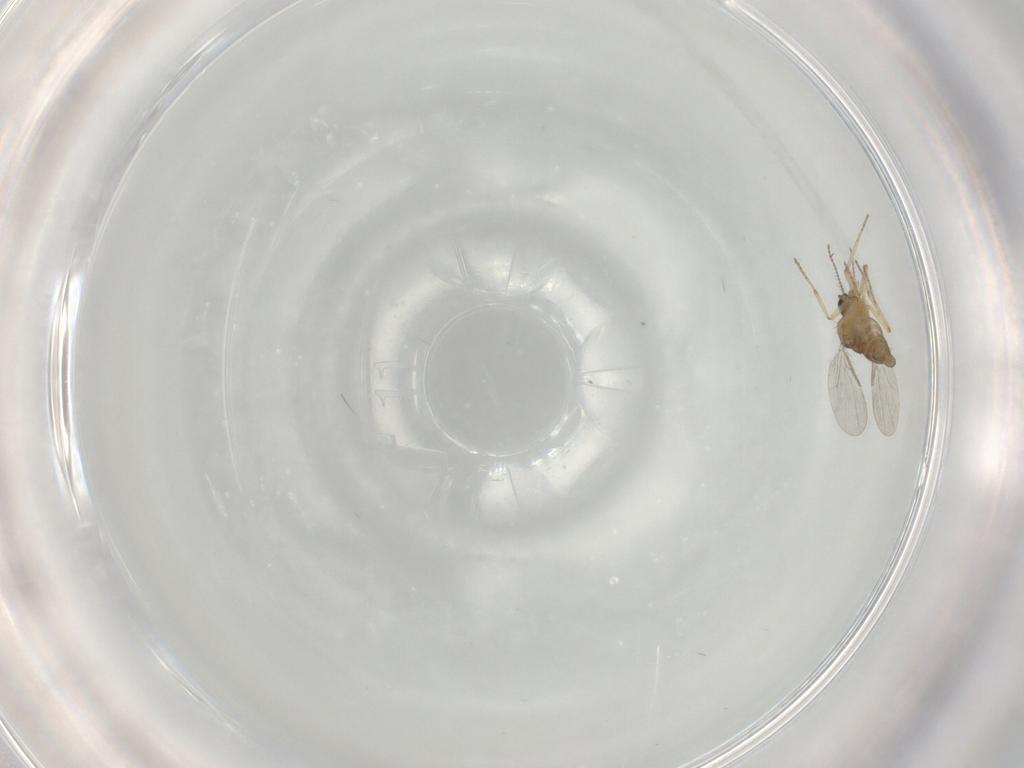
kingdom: Animalia
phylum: Arthropoda
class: Insecta
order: Diptera
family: Ceratopogonidae
